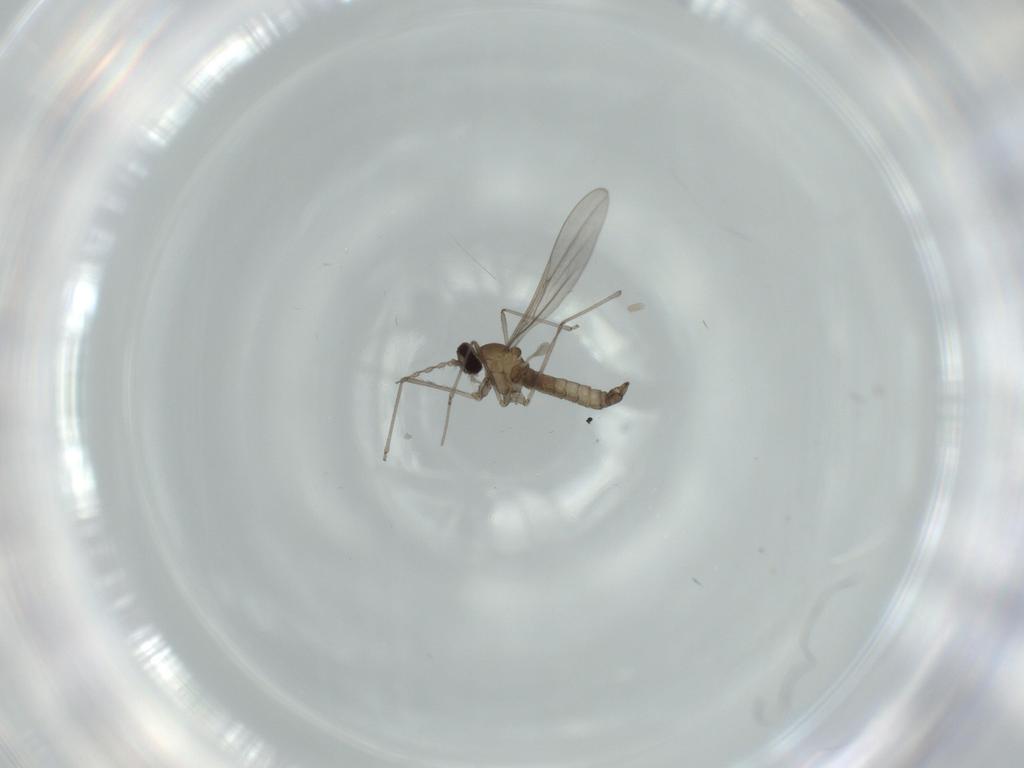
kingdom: Animalia
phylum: Arthropoda
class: Insecta
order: Diptera
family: Cecidomyiidae
